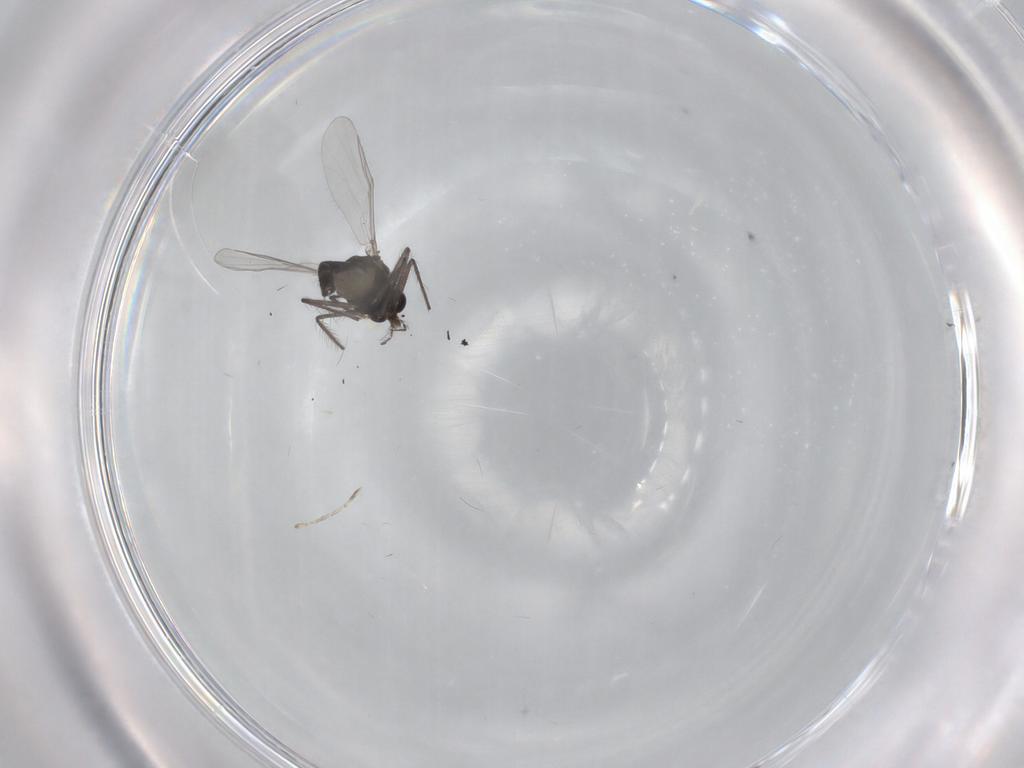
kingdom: Animalia
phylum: Arthropoda
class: Insecta
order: Diptera
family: Chironomidae
